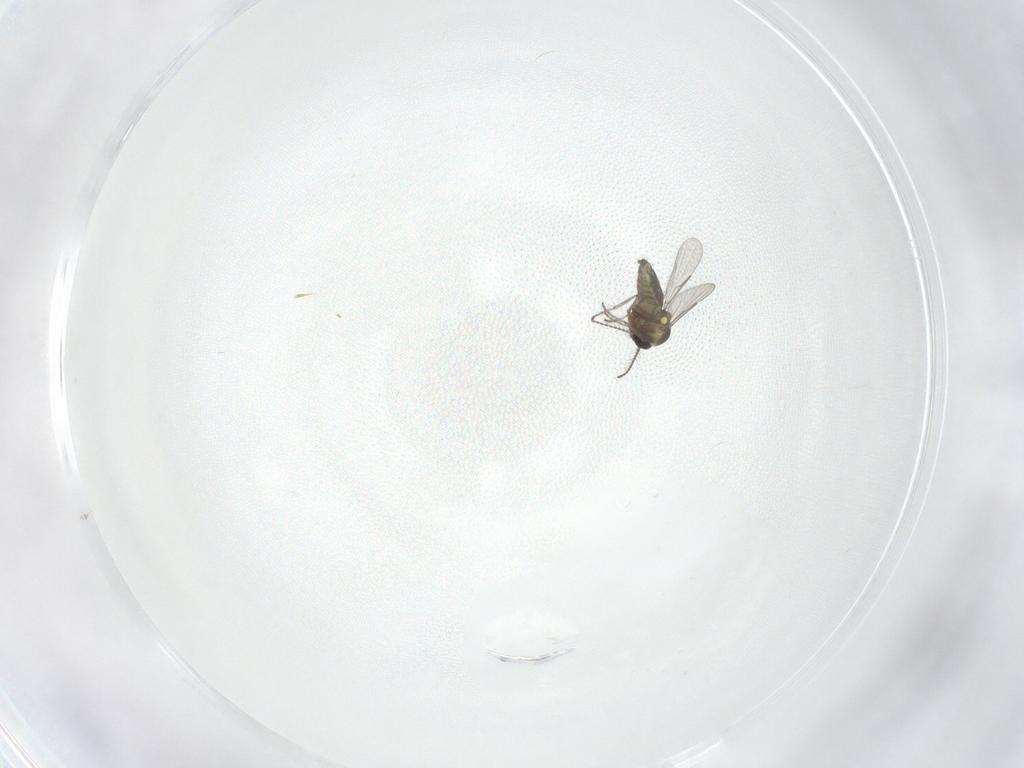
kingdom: Animalia
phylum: Arthropoda
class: Insecta
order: Diptera
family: Ceratopogonidae
